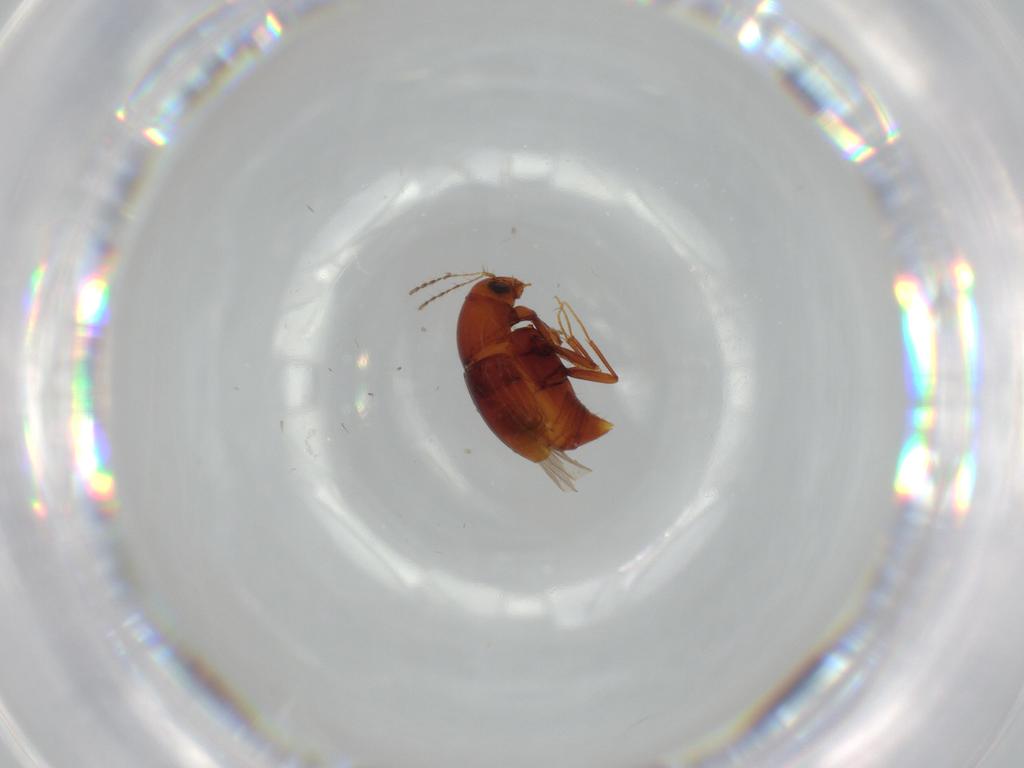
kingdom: Animalia
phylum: Arthropoda
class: Insecta
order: Coleoptera
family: Staphylinidae
